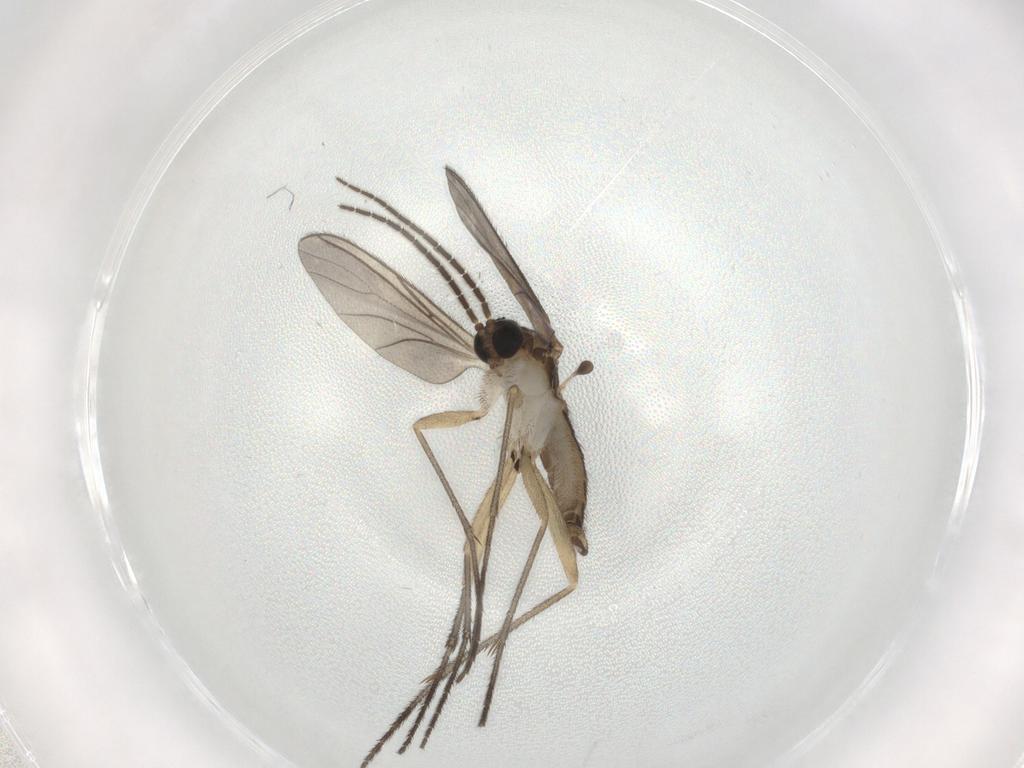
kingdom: Animalia
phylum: Arthropoda
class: Insecta
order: Diptera
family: Sciaridae
